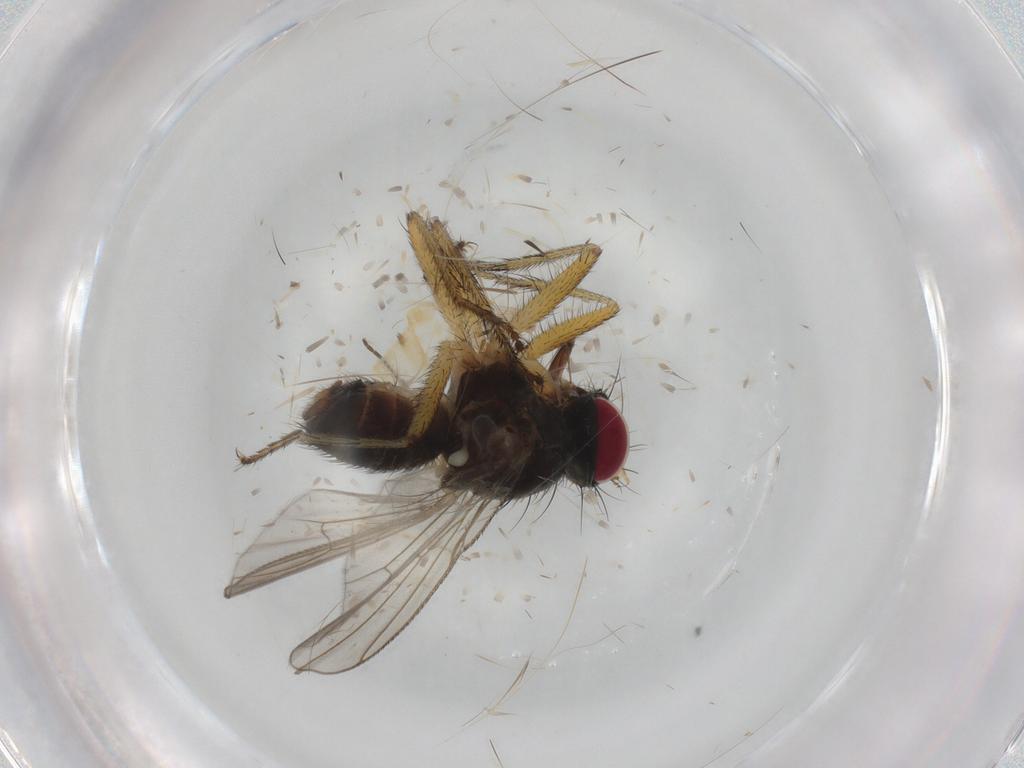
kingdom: Animalia
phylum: Arthropoda
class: Insecta
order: Diptera
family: Muscidae
